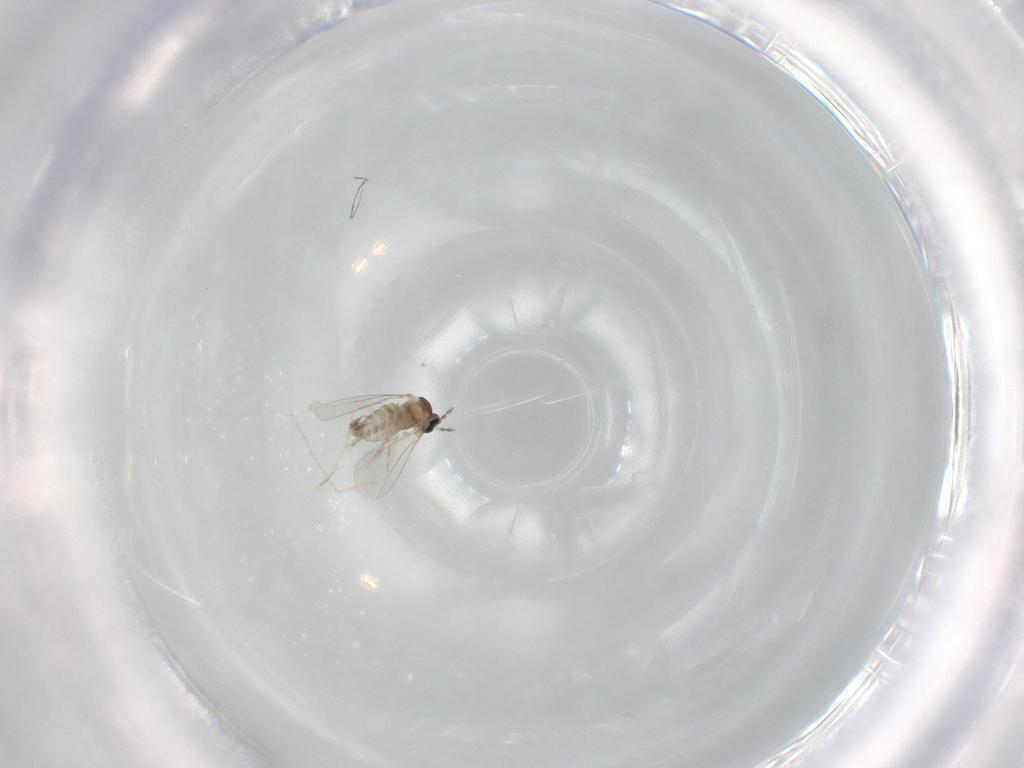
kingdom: Animalia
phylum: Arthropoda
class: Insecta
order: Diptera
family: Cecidomyiidae
